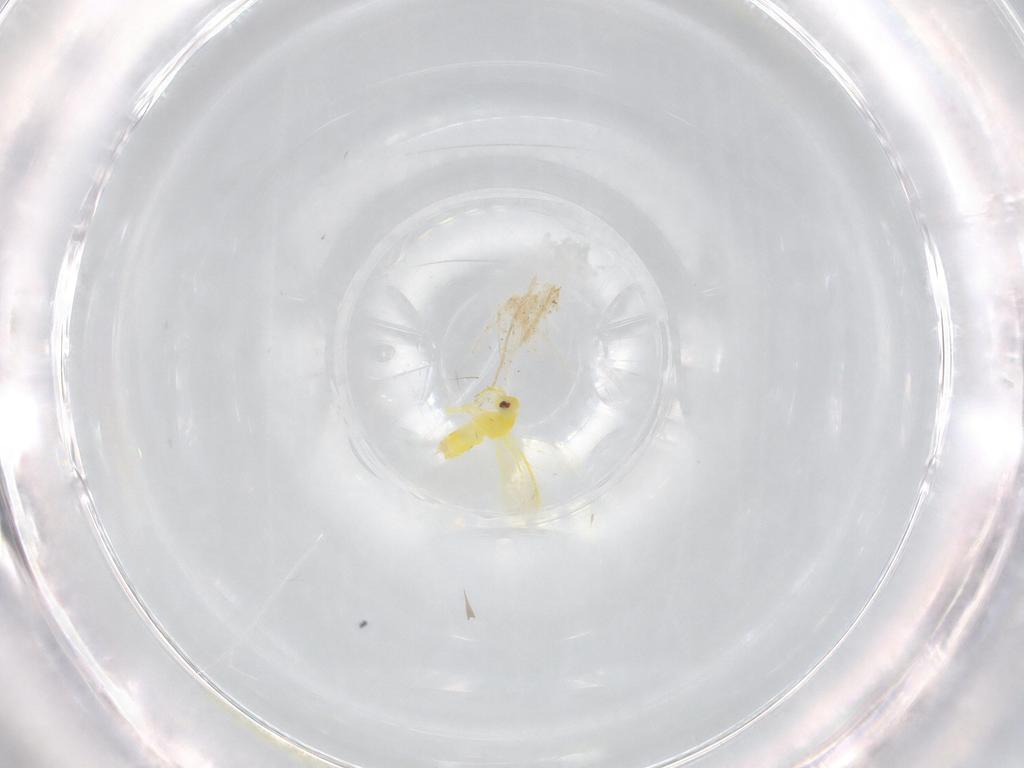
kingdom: Animalia
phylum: Arthropoda
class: Insecta
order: Hemiptera
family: Aleyrodidae
